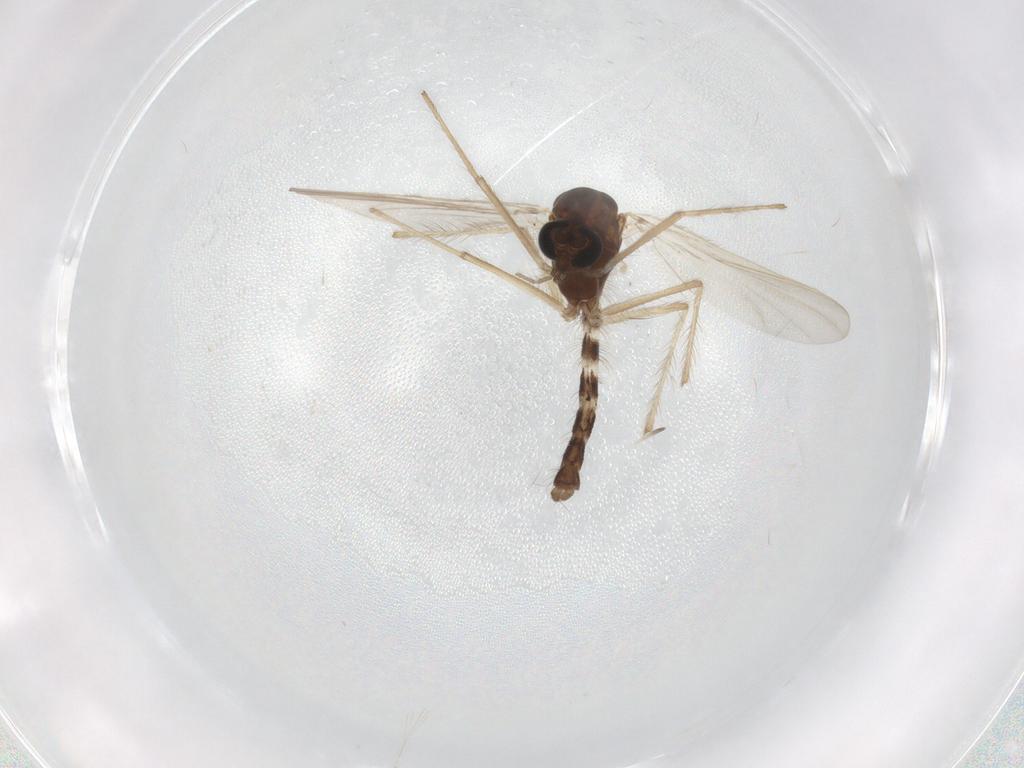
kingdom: Animalia
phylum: Arthropoda
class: Insecta
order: Diptera
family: Chironomidae
